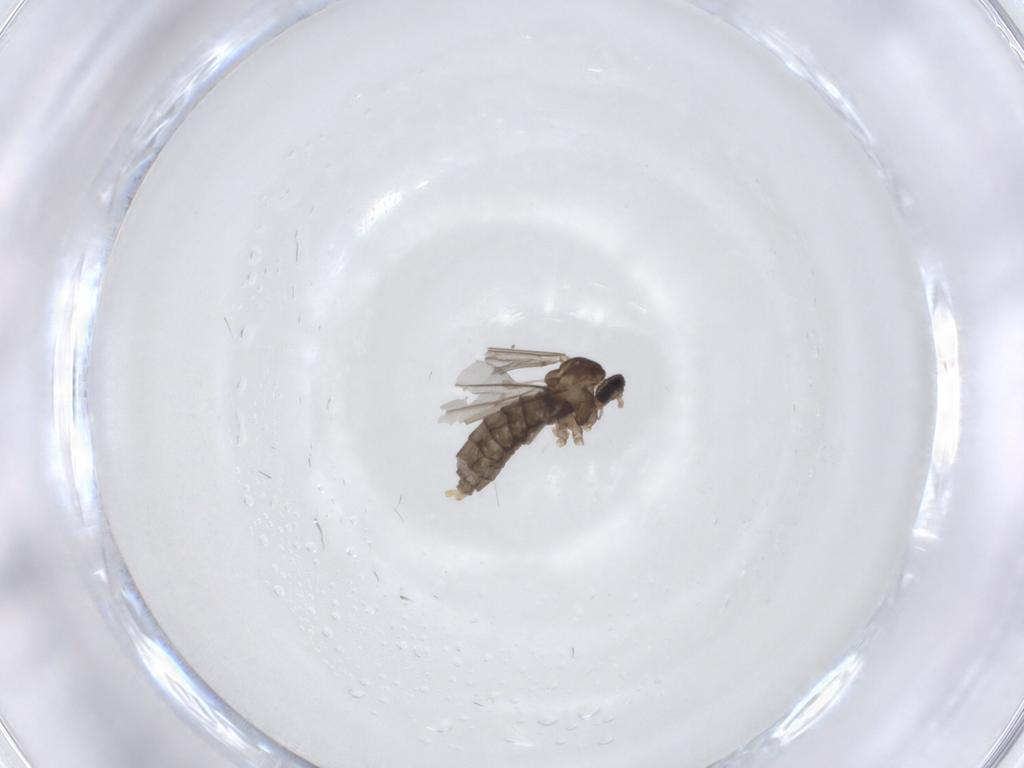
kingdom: Animalia
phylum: Arthropoda
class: Insecta
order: Diptera
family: Cecidomyiidae
